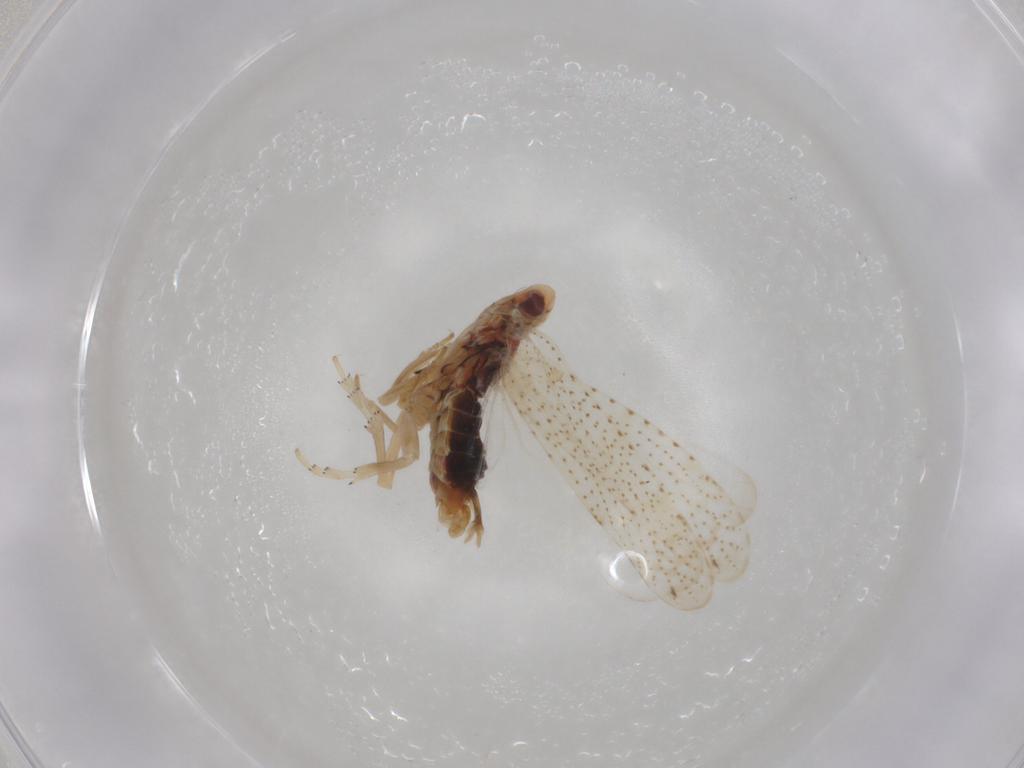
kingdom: Animalia
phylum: Arthropoda
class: Insecta
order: Hemiptera
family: Cixiidae
